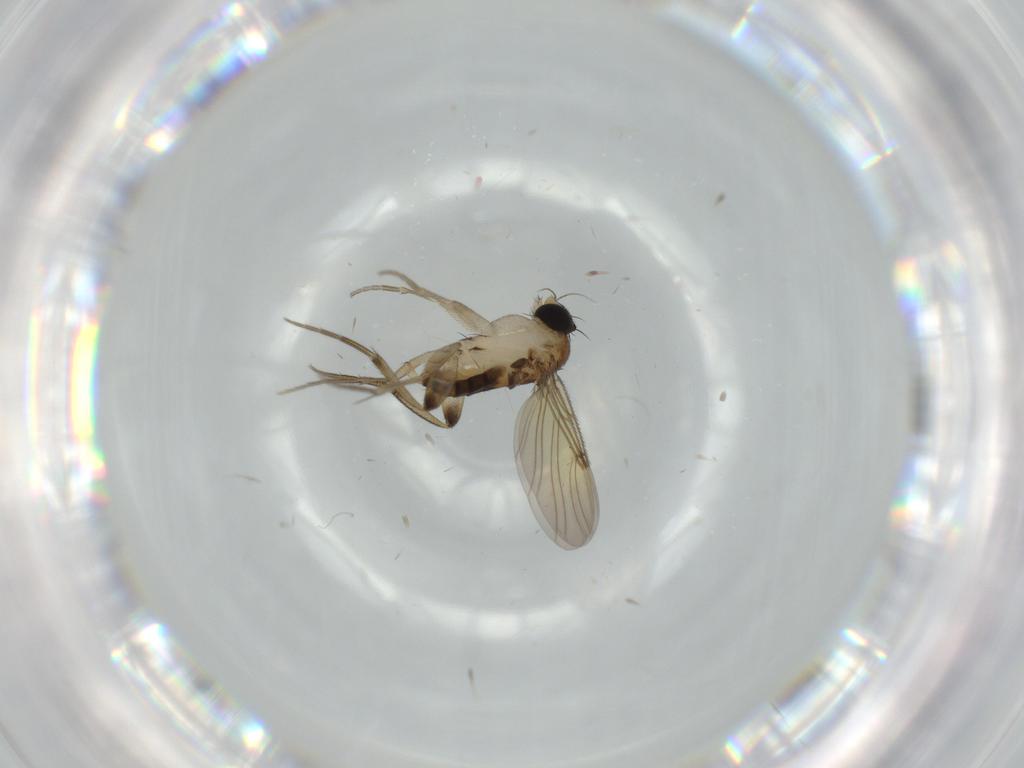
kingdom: Animalia
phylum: Arthropoda
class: Insecta
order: Diptera
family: Phoridae
